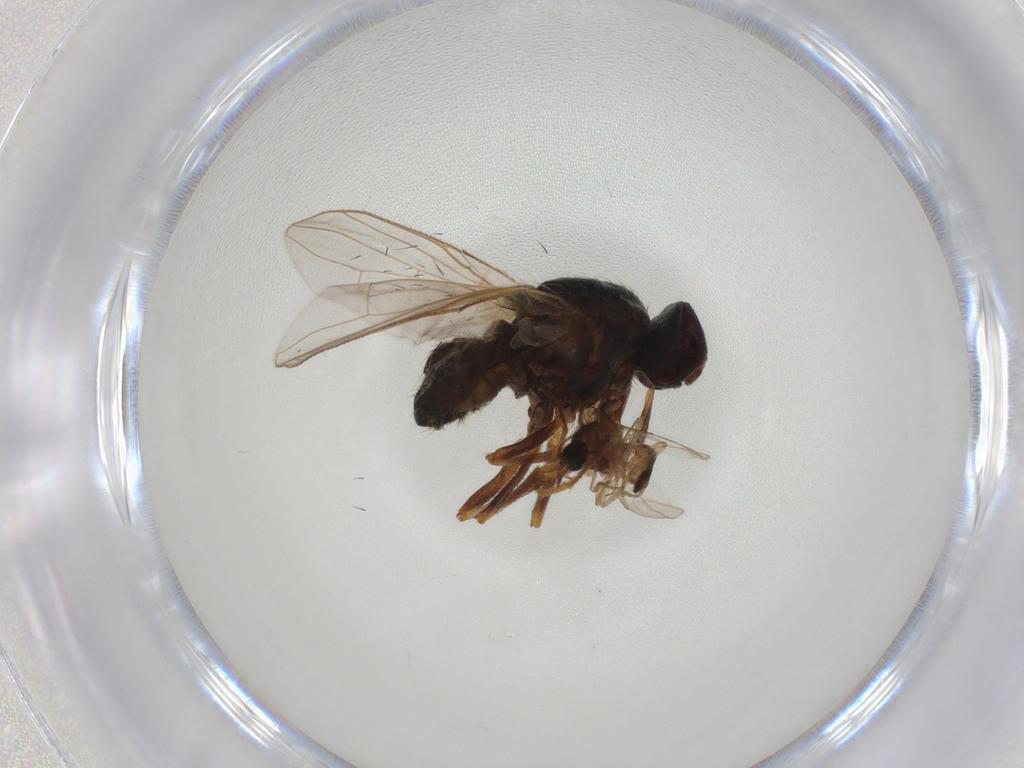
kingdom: Animalia
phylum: Arthropoda
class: Insecta
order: Diptera
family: Ceratopogonidae
